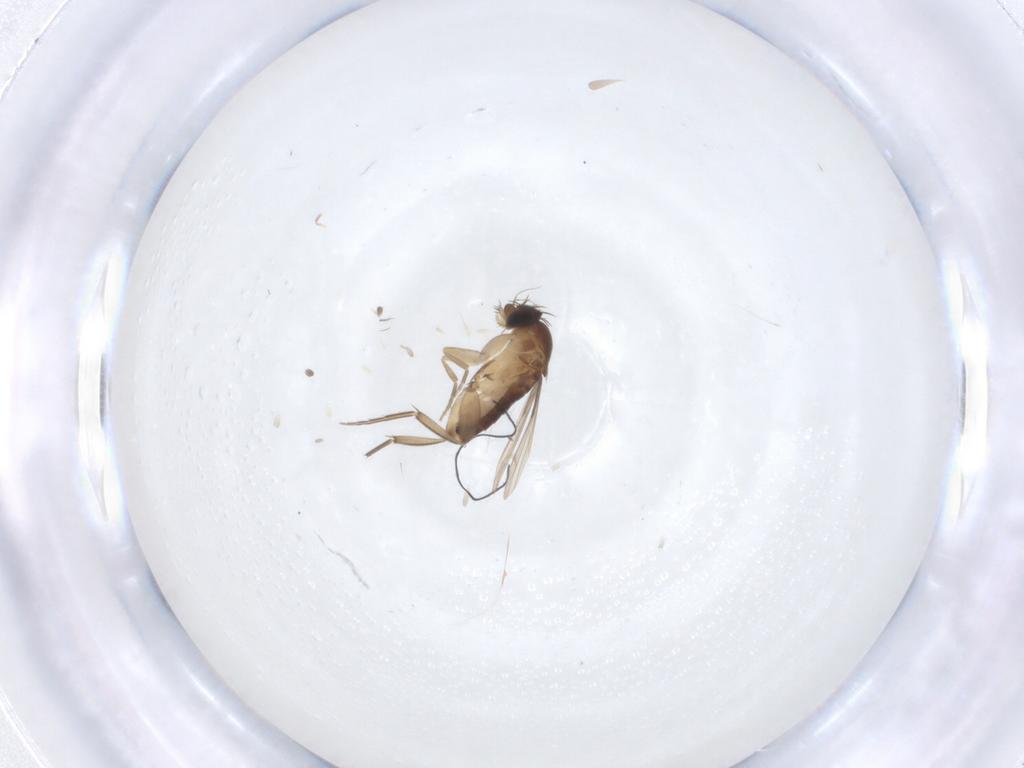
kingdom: Animalia
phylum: Arthropoda
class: Insecta
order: Diptera
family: Phoridae
